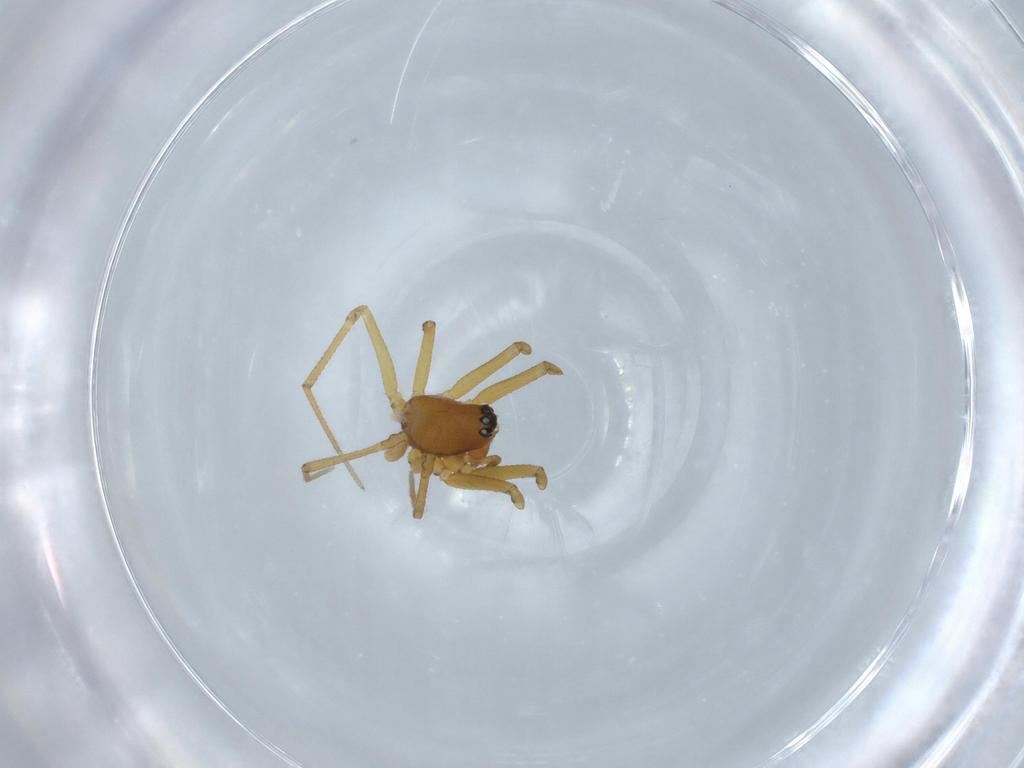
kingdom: Animalia
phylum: Arthropoda
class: Arachnida
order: Araneae
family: Linyphiidae
